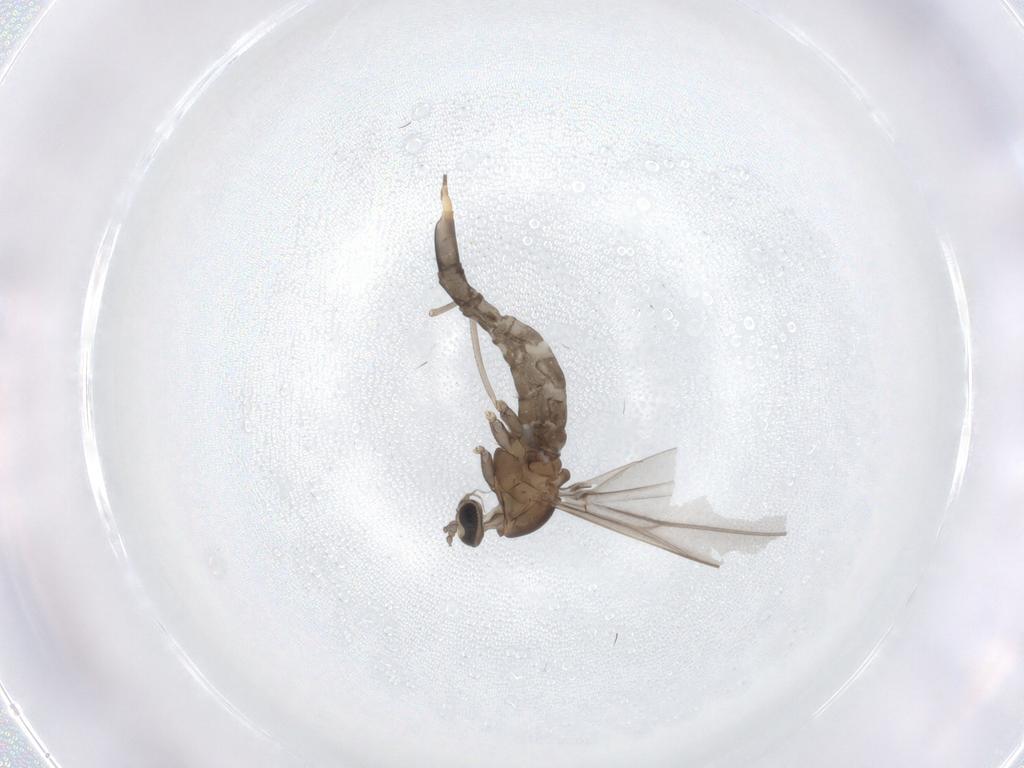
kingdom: Animalia
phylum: Arthropoda
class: Insecta
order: Diptera
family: Cecidomyiidae
